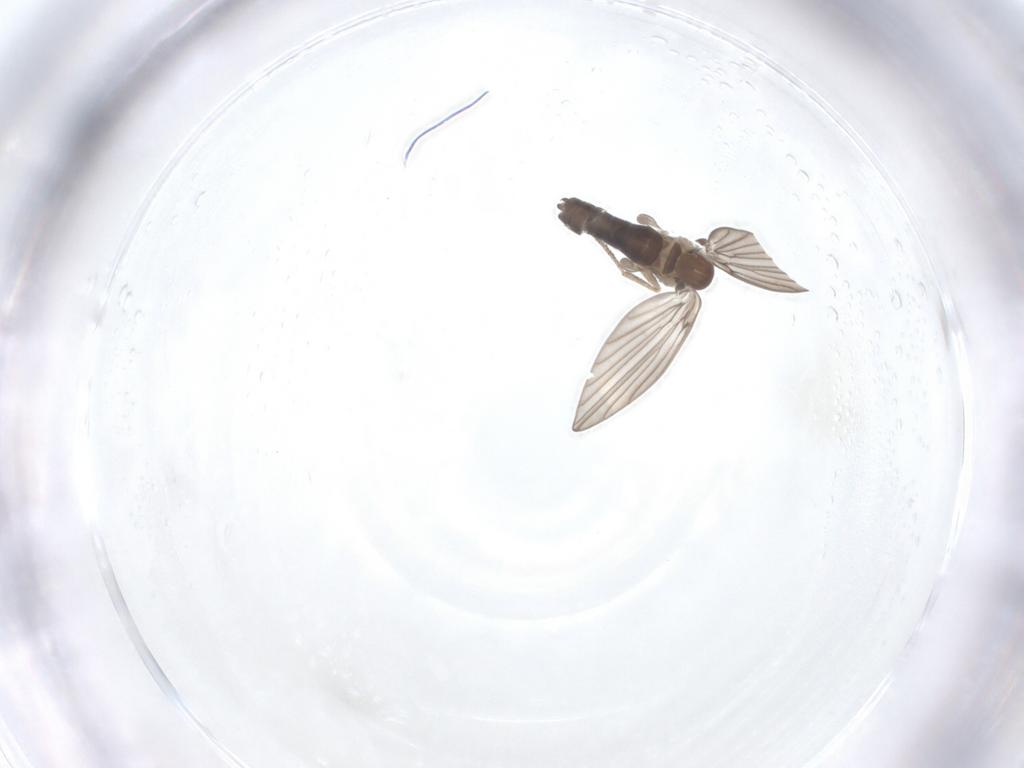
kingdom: Animalia
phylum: Arthropoda
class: Insecta
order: Diptera
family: Psychodidae
